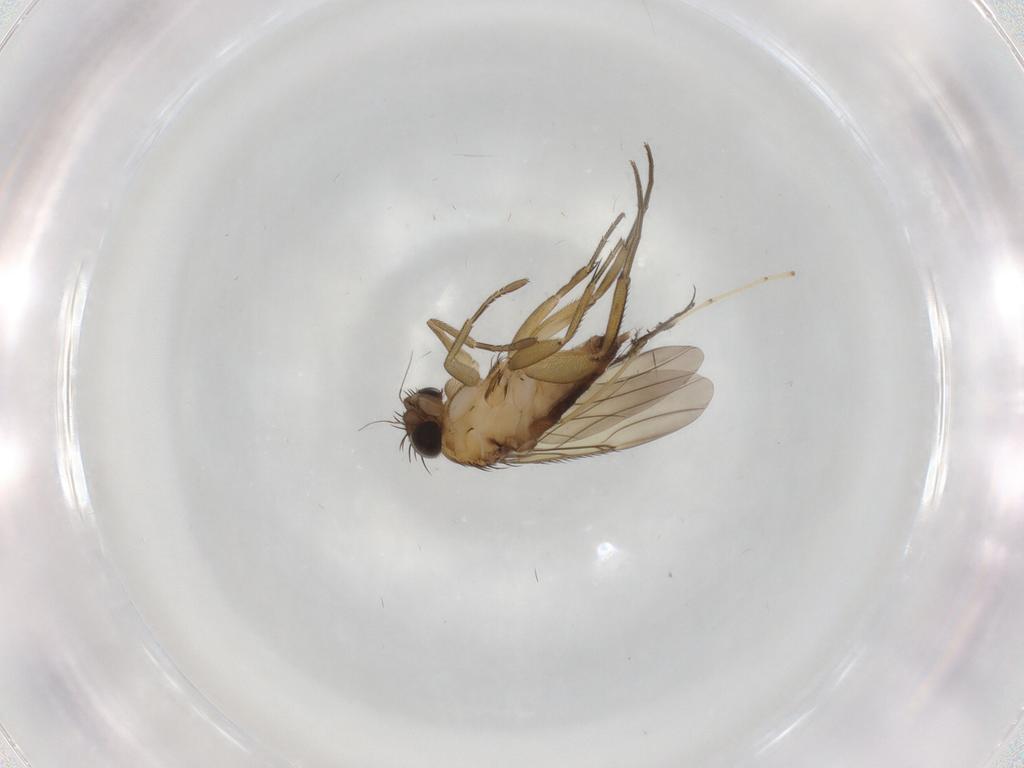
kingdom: Animalia
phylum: Arthropoda
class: Insecta
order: Diptera
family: Phoridae
